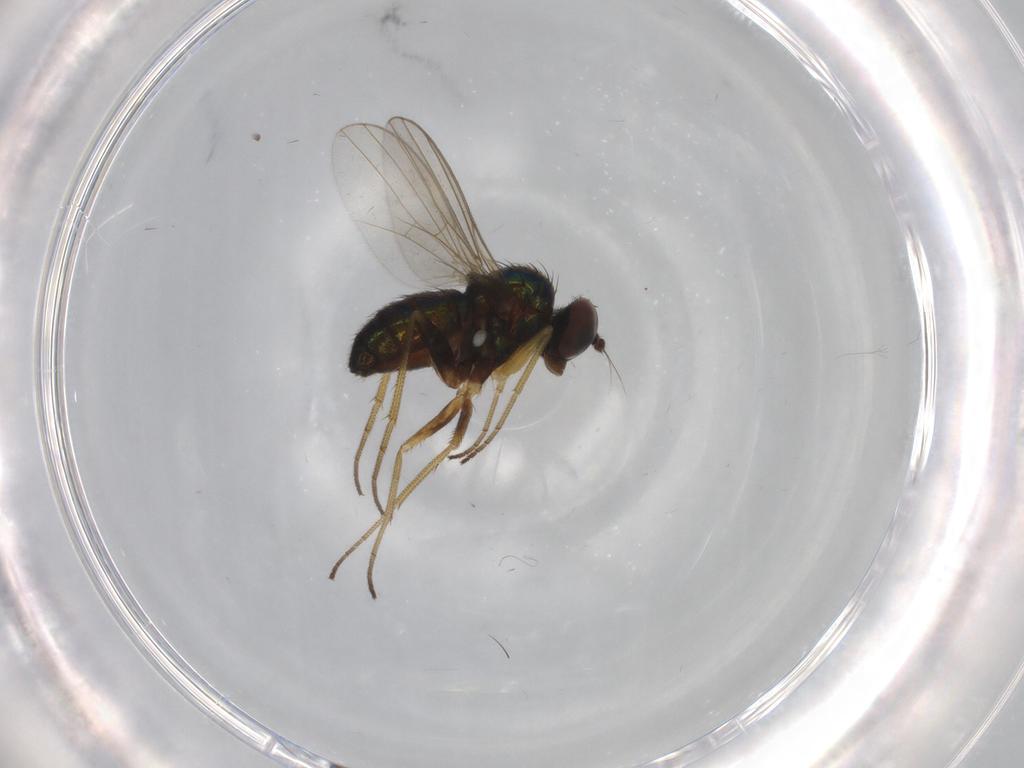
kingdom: Animalia
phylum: Arthropoda
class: Insecta
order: Diptera
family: Dolichopodidae
